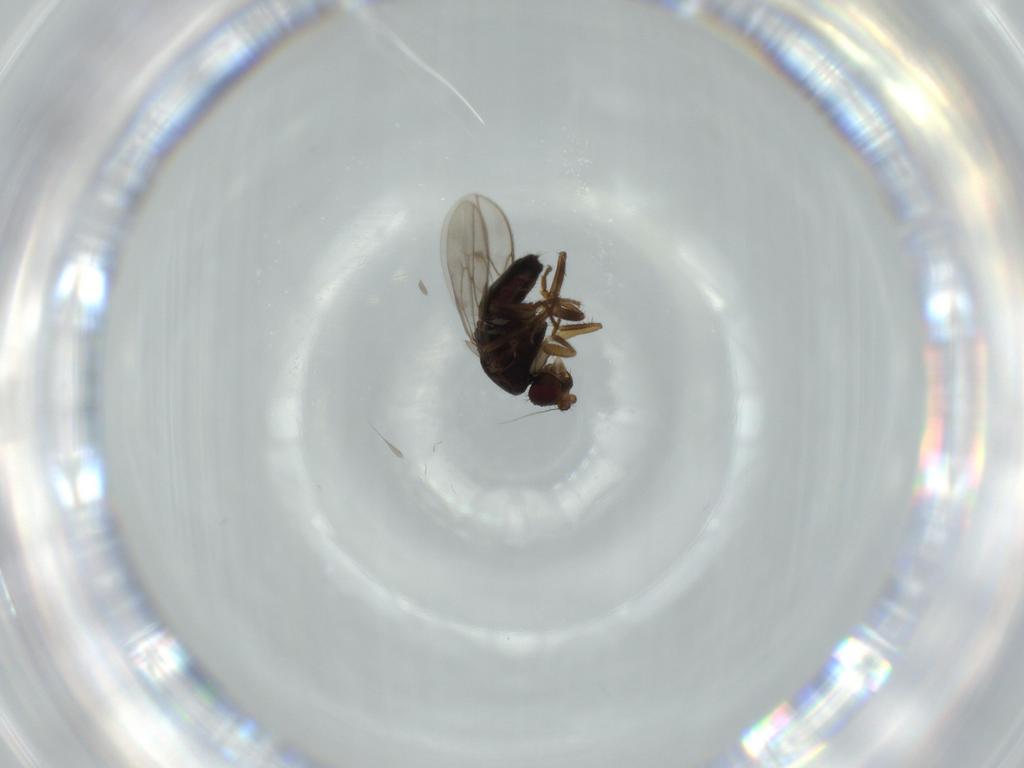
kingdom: Animalia
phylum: Arthropoda
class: Insecta
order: Diptera
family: Sphaeroceridae
